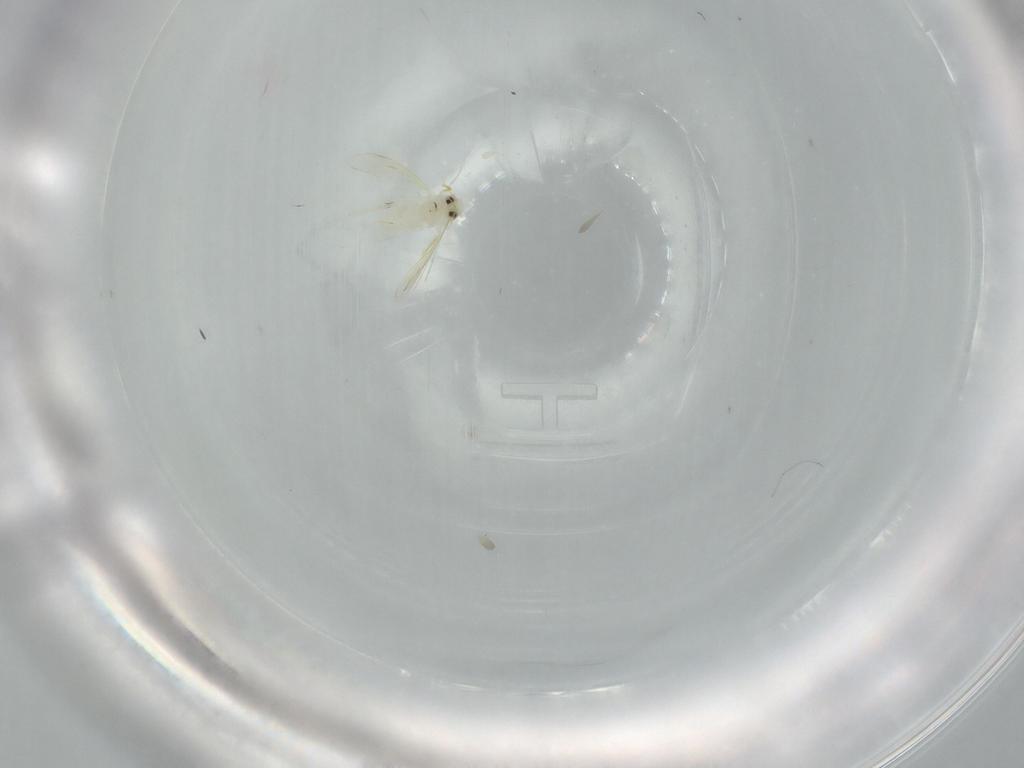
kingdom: Animalia
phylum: Arthropoda
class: Insecta
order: Hemiptera
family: Aleyrodidae
